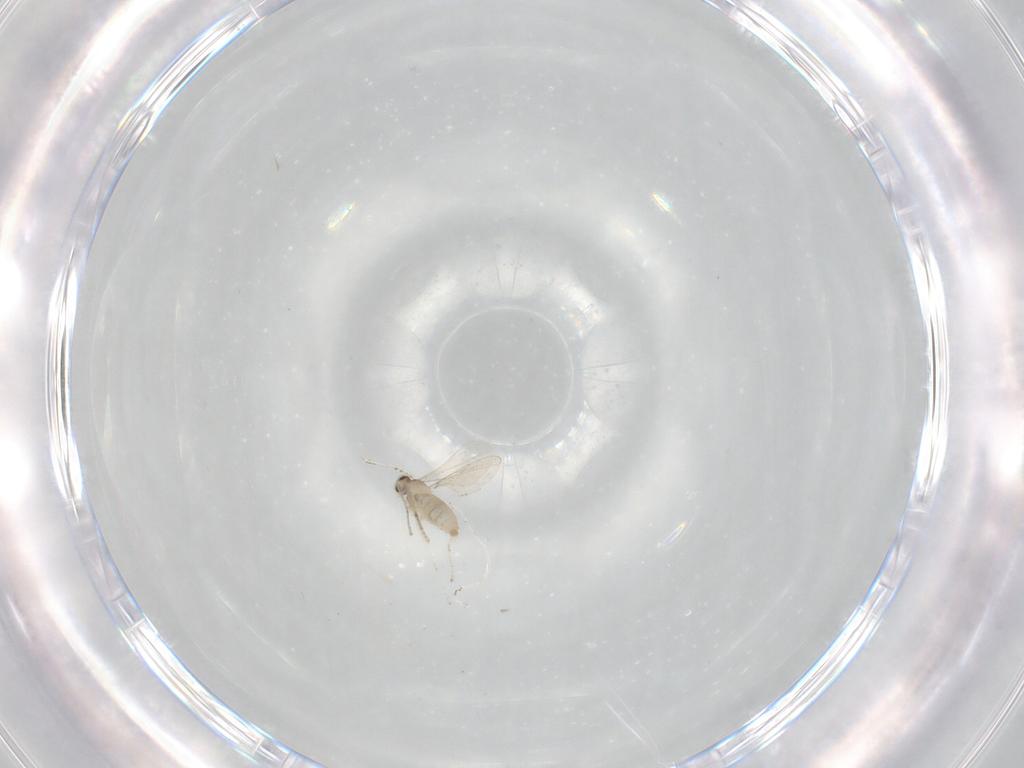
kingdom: Animalia
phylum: Arthropoda
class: Insecta
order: Diptera
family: Cecidomyiidae
